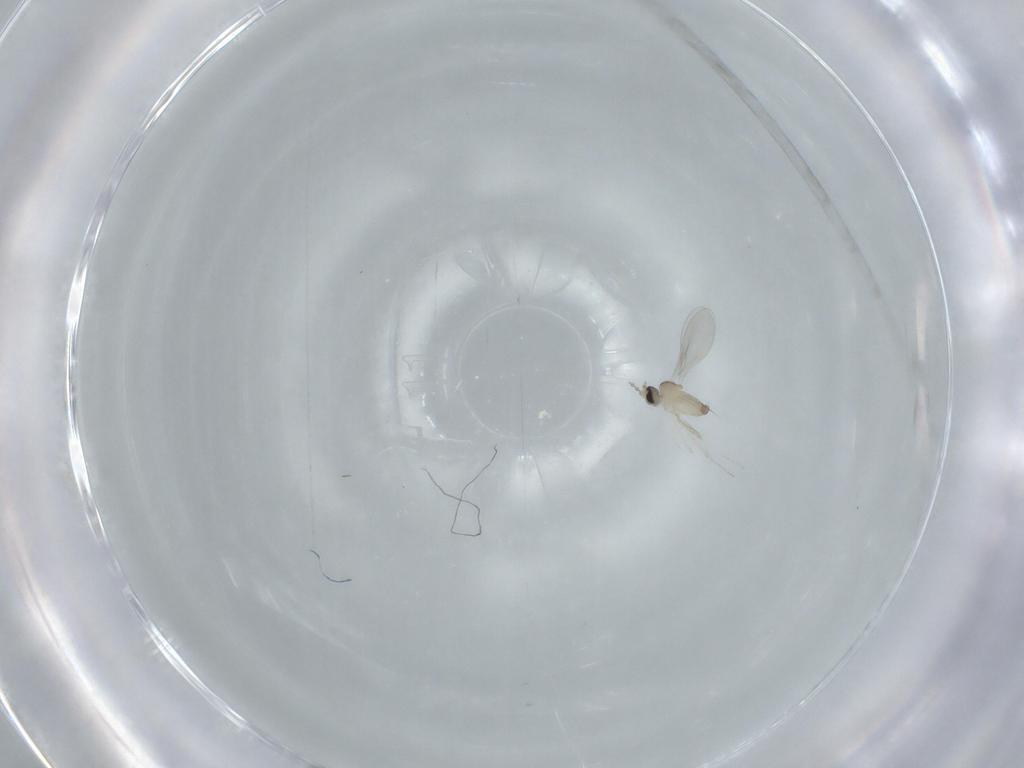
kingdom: Animalia
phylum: Arthropoda
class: Insecta
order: Diptera
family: Cecidomyiidae
